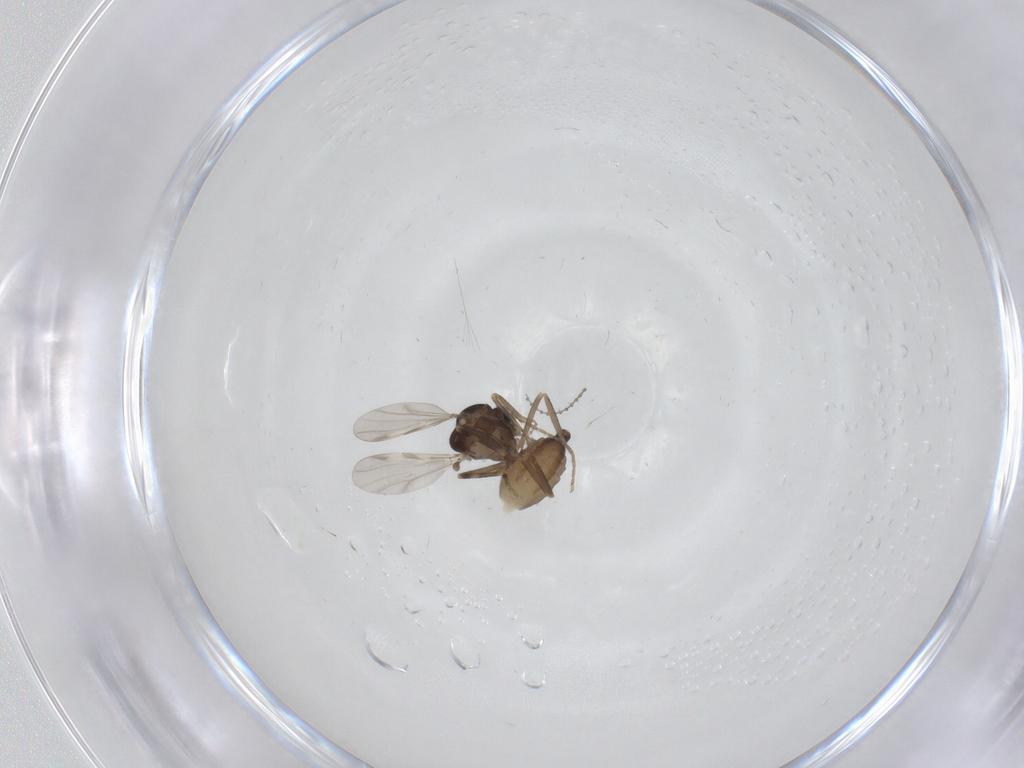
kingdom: Animalia
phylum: Arthropoda
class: Insecta
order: Diptera
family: Ceratopogonidae
